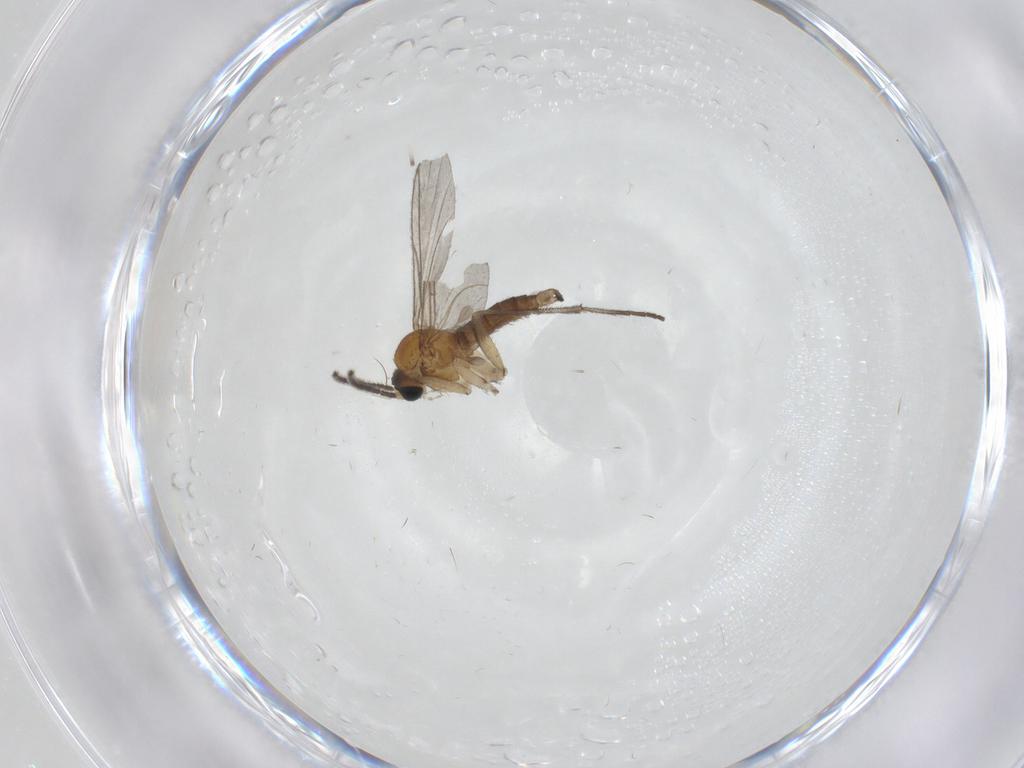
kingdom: Animalia
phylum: Arthropoda
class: Insecta
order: Diptera
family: Sciaridae
